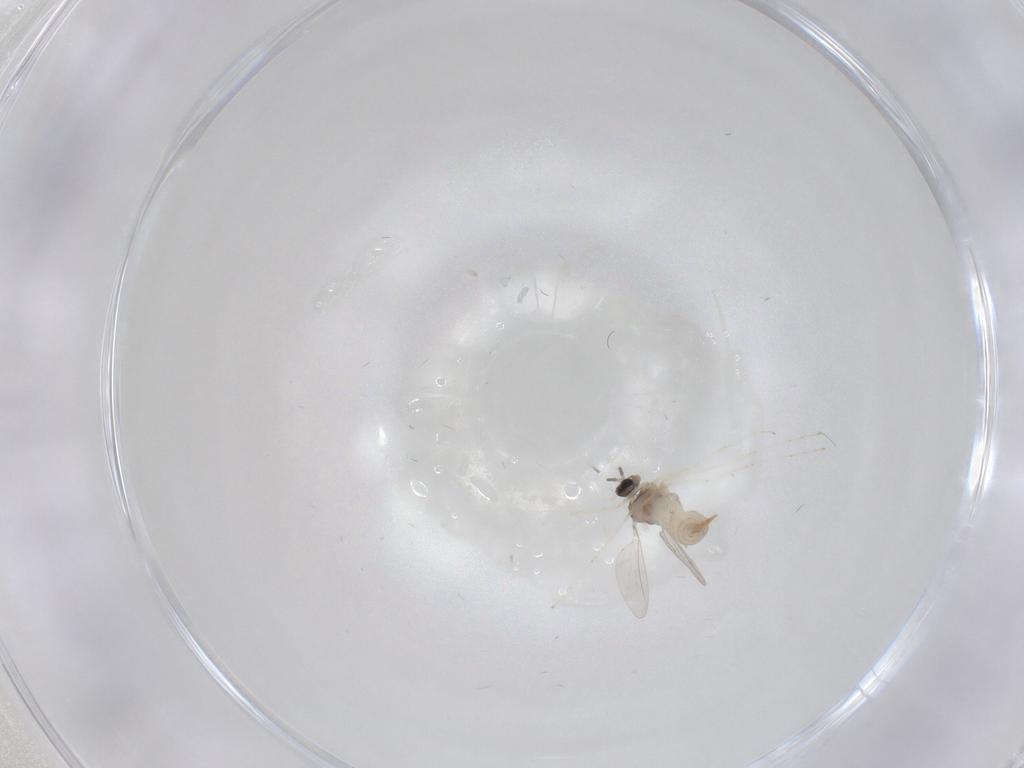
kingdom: Animalia
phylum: Arthropoda
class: Insecta
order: Diptera
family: Cecidomyiidae
